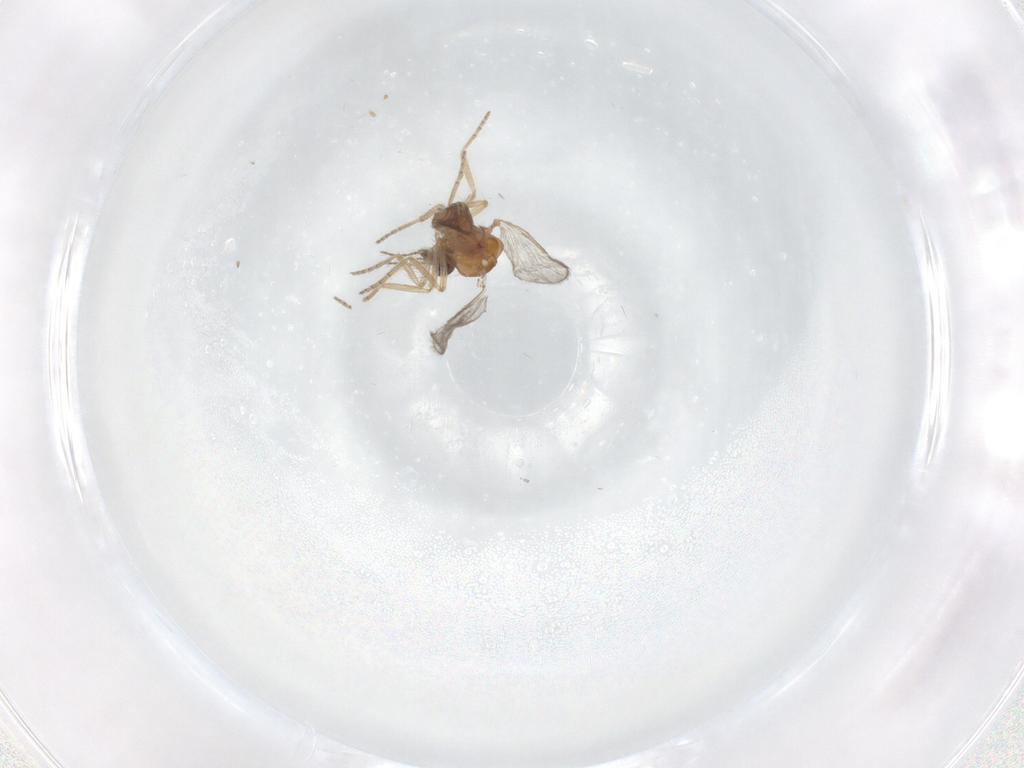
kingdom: Animalia
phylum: Arthropoda
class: Insecta
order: Diptera
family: Ceratopogonidae
